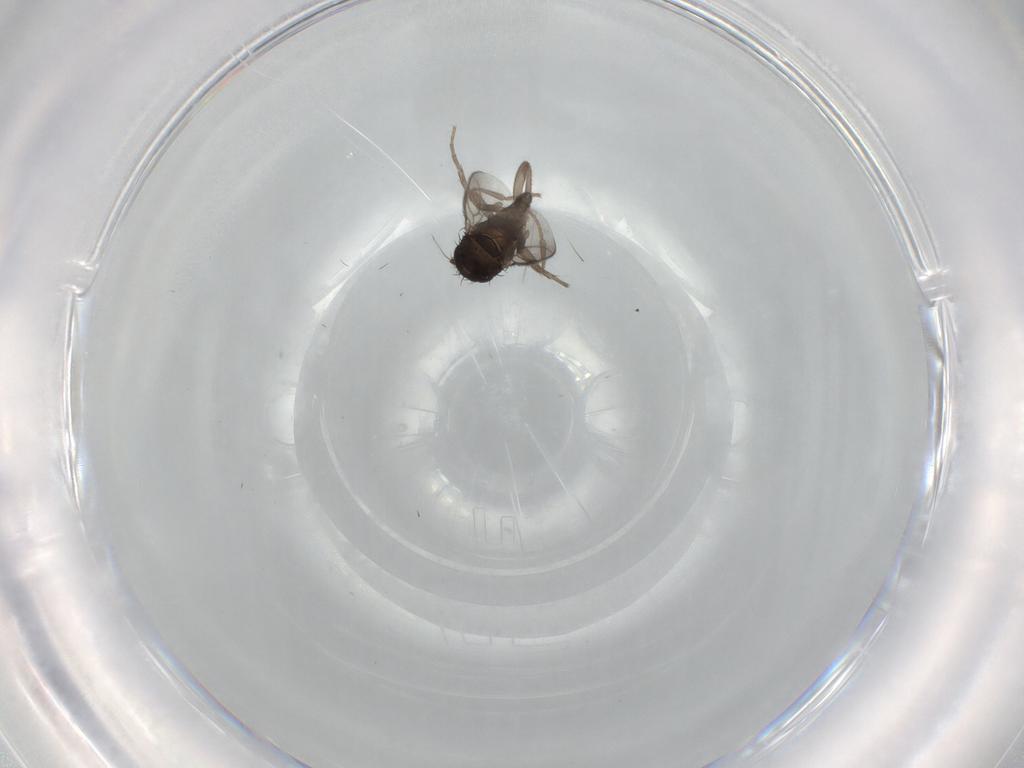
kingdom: Animalia
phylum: Arthropoda
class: Insecta
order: Diptera
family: Sphaeroceridae
